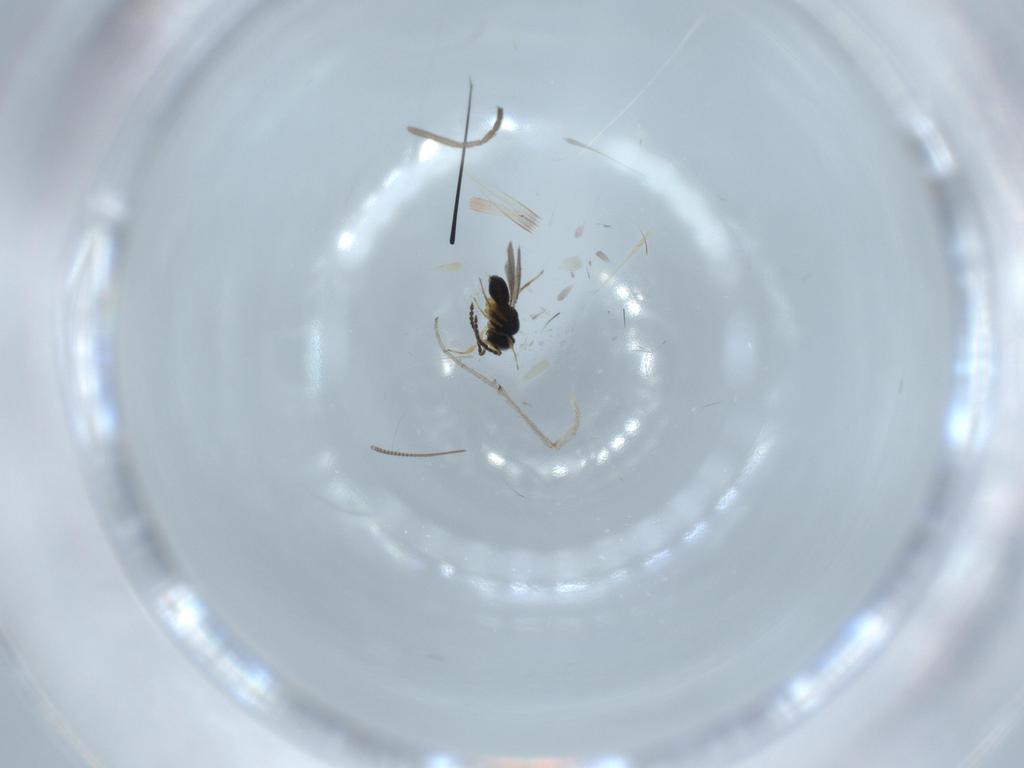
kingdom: Animalia
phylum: Arthropoda
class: Insecta
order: Hymenoptera
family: Scelionidae
